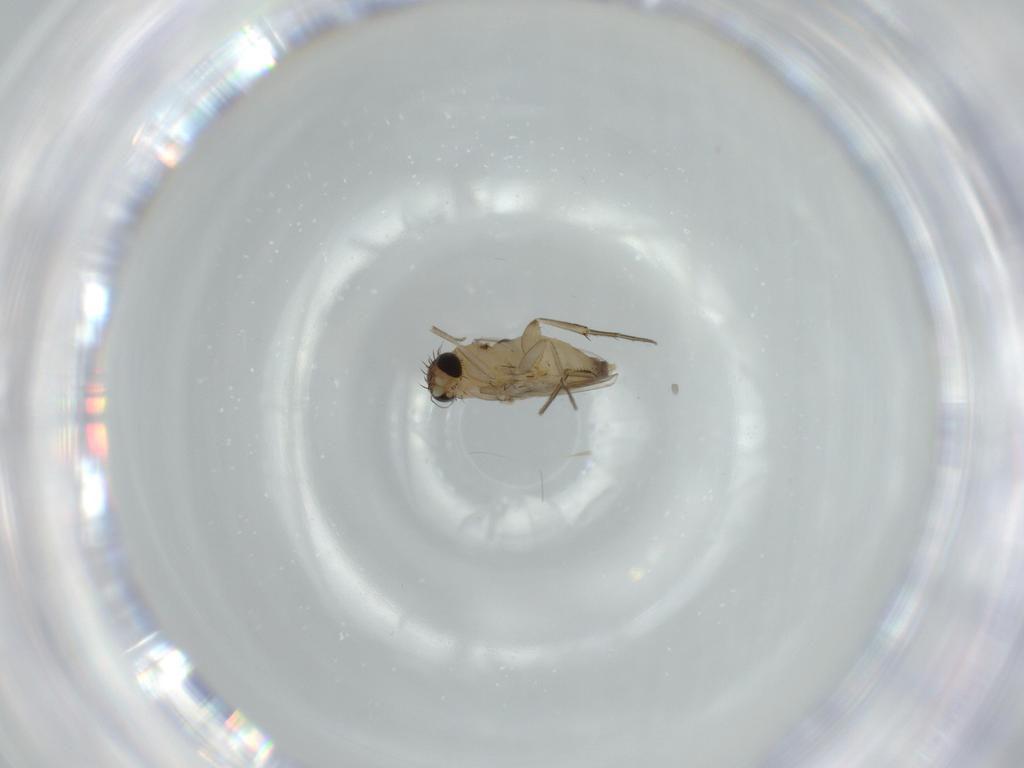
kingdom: Animalia
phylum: Arthropoda
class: Insecta
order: Diptera
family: Phoridae
